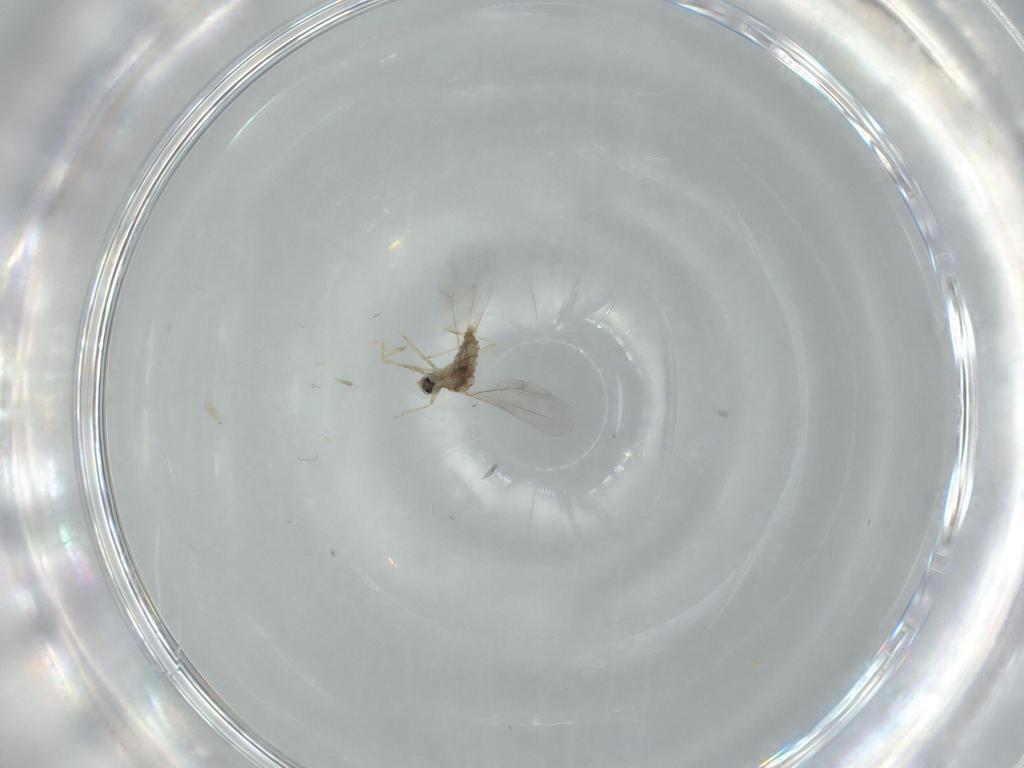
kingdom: Animalia
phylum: Arthropoda
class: Insecta
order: Diptera
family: Cecidomyiidae
